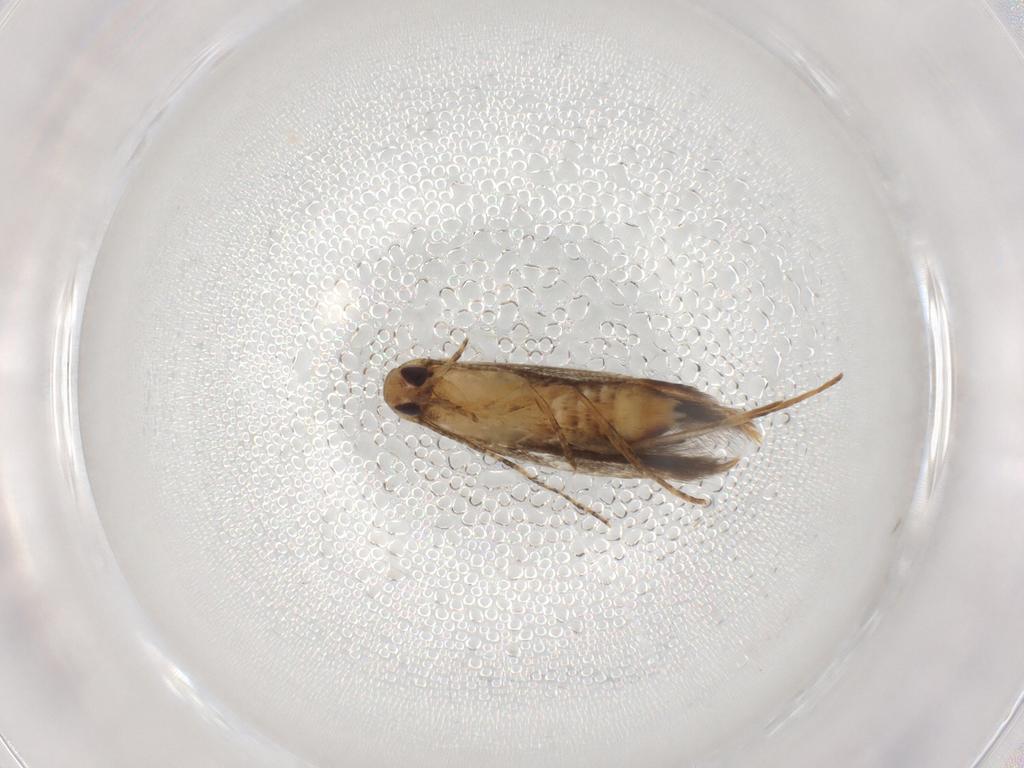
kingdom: Animalia
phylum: Arthropoda
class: Insecta
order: Lepidoptera
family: Crambidae
